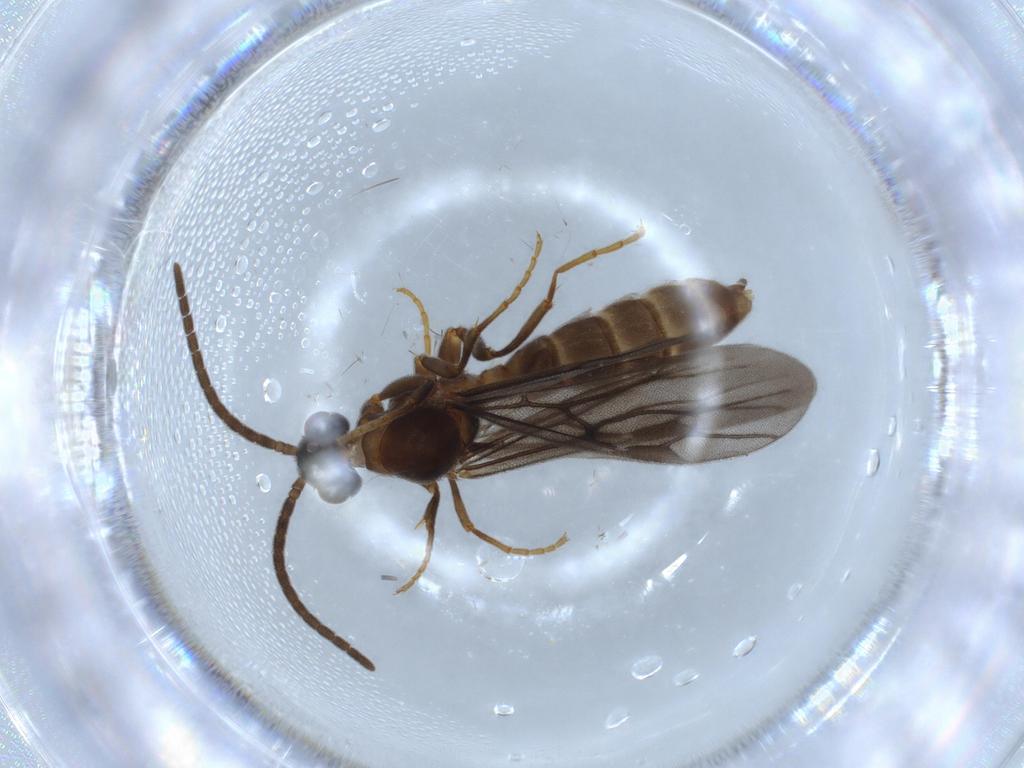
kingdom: Animalia
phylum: Arthropoda
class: Insecta
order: Hymenoptera
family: Formicidae
